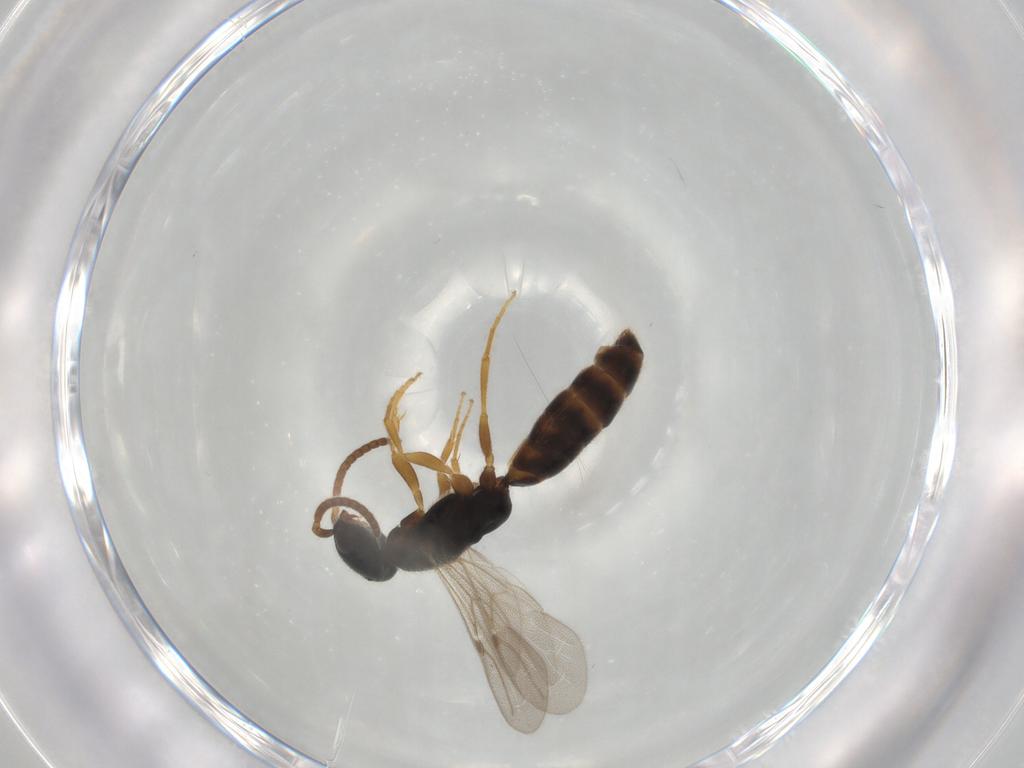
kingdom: Animalia
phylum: Arthropoda
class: Insecta
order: Hymenoptera
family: Bethylidae
